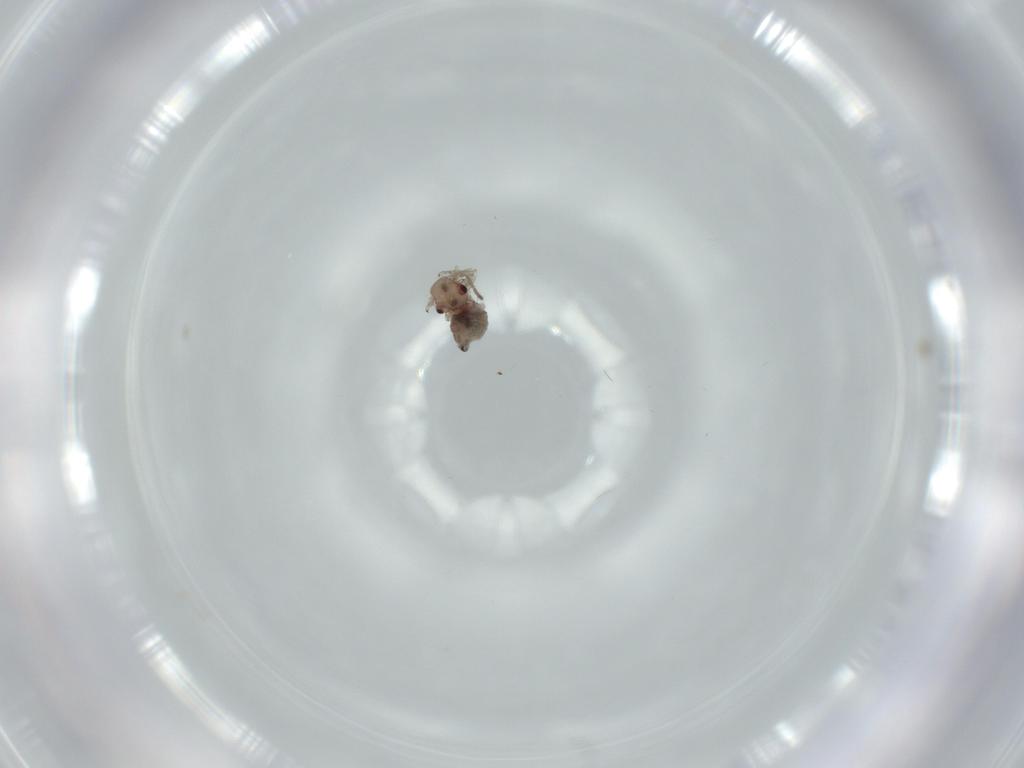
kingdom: Animalia
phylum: Arthropoda
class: Insecta
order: Psocodea
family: Peripsocidae
